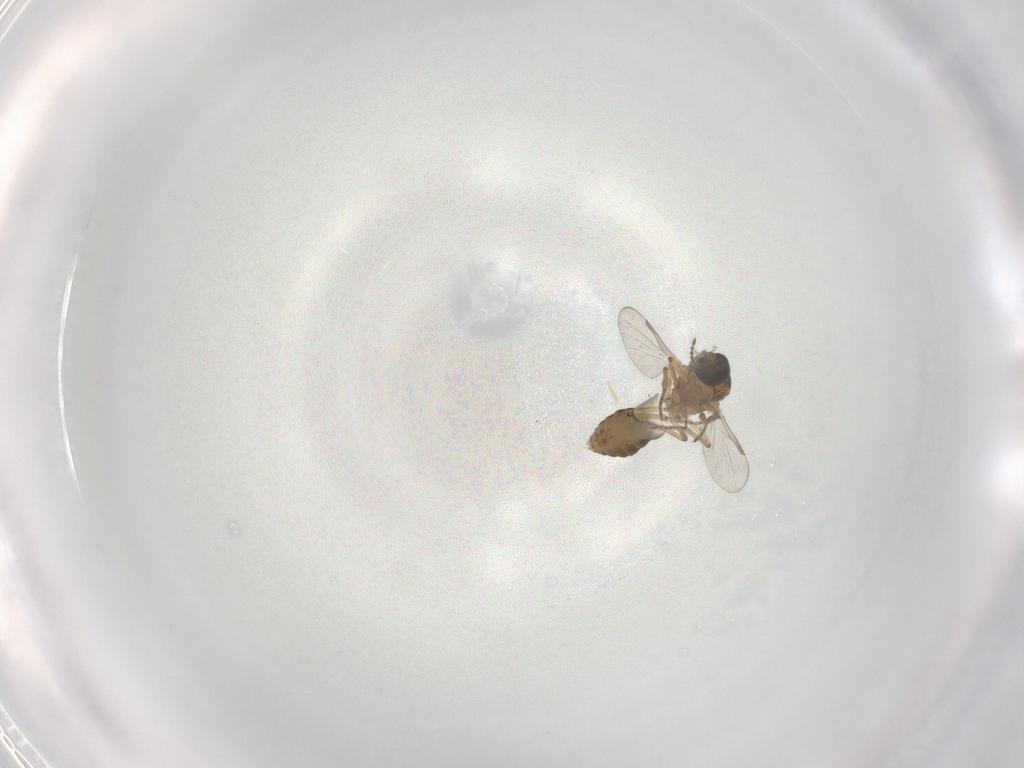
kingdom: Animalia
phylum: Arthropoda
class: Insecta
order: Diptera
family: Ceratopogonidae
